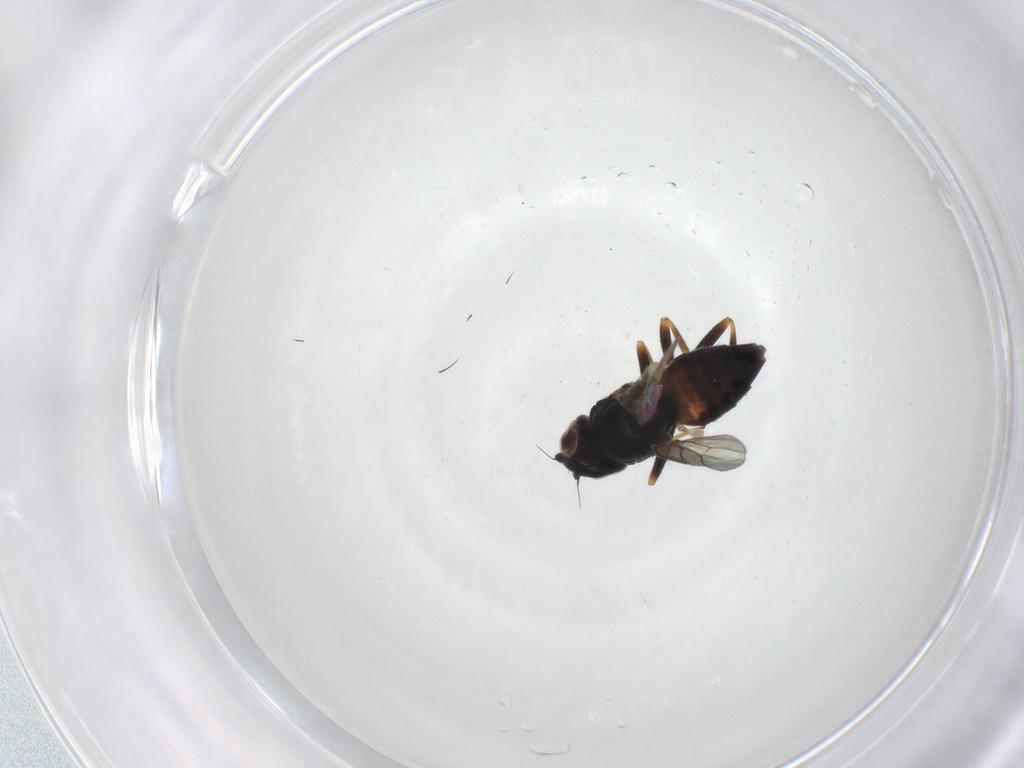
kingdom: Animalia
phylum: Arthropoda
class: Insecta
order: Diptera
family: Chloropidae
